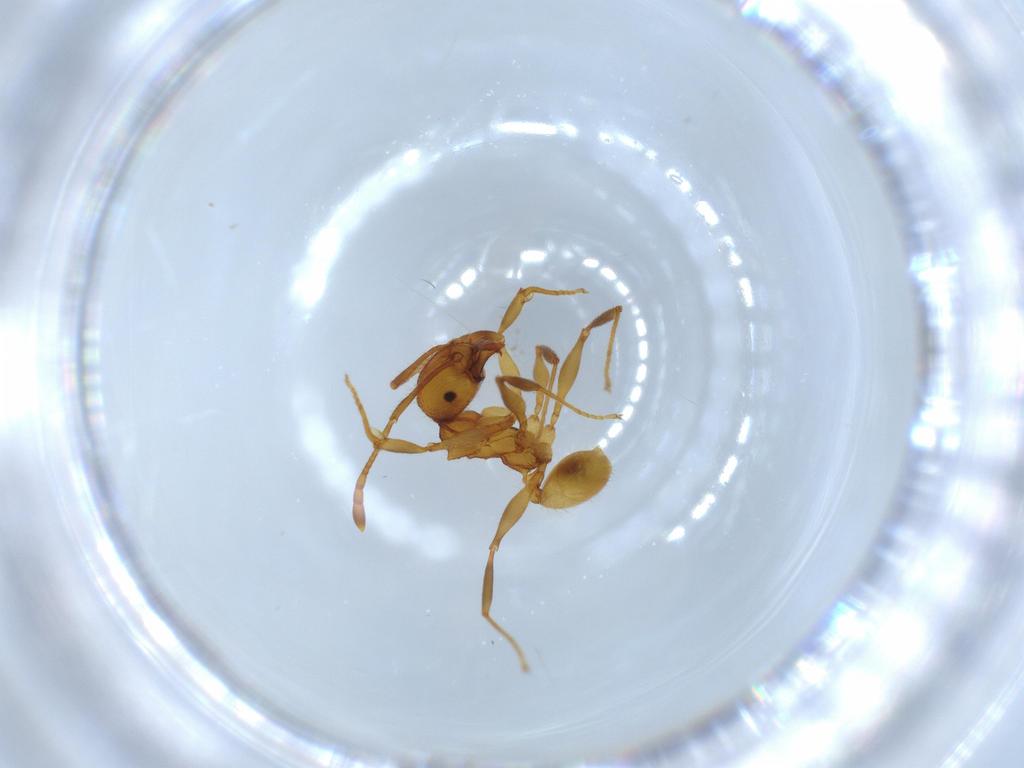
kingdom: Animalia
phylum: Arthropoda
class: Insecta
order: Hymenoptera
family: Formicidae
